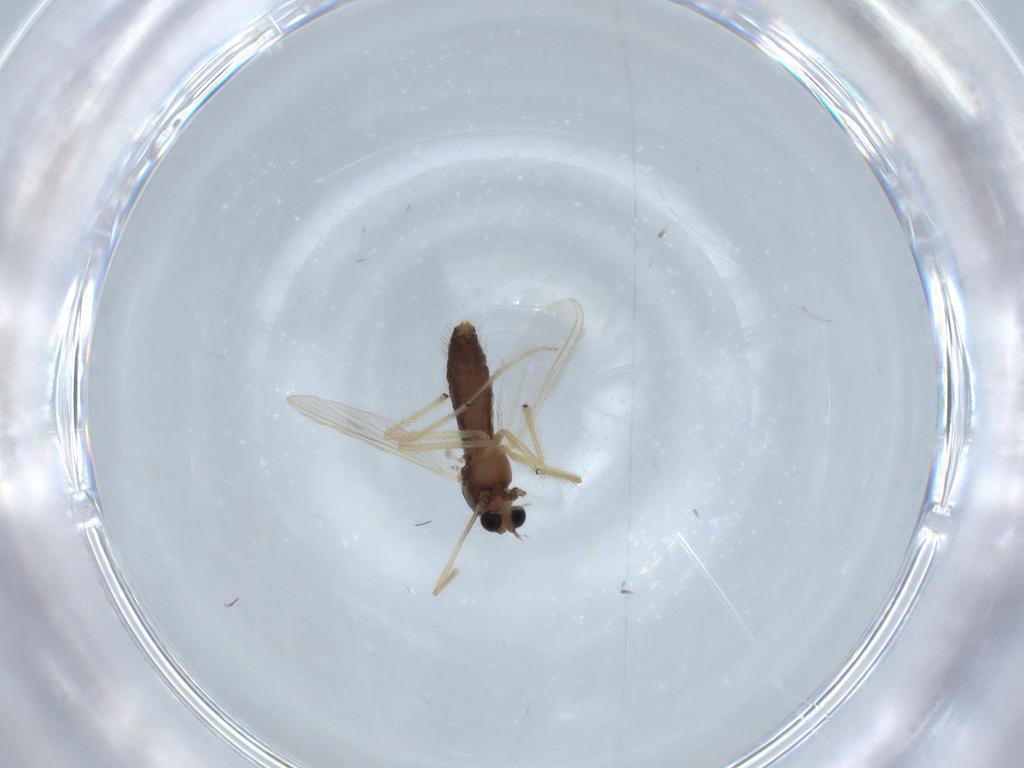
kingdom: Animalia
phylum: Arthropoda
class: Insecta
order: Diptera
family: Chironomidae
